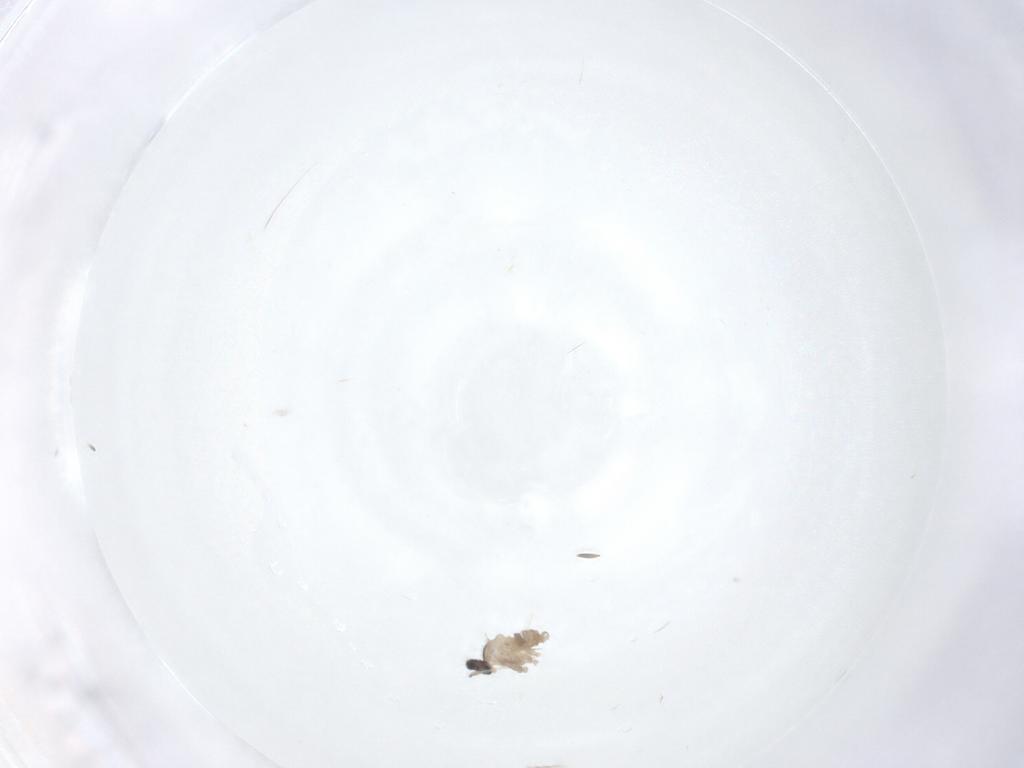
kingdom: Animalia
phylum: Arthropoda
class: Insecta
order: Diptera
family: Cecidomyiidae
